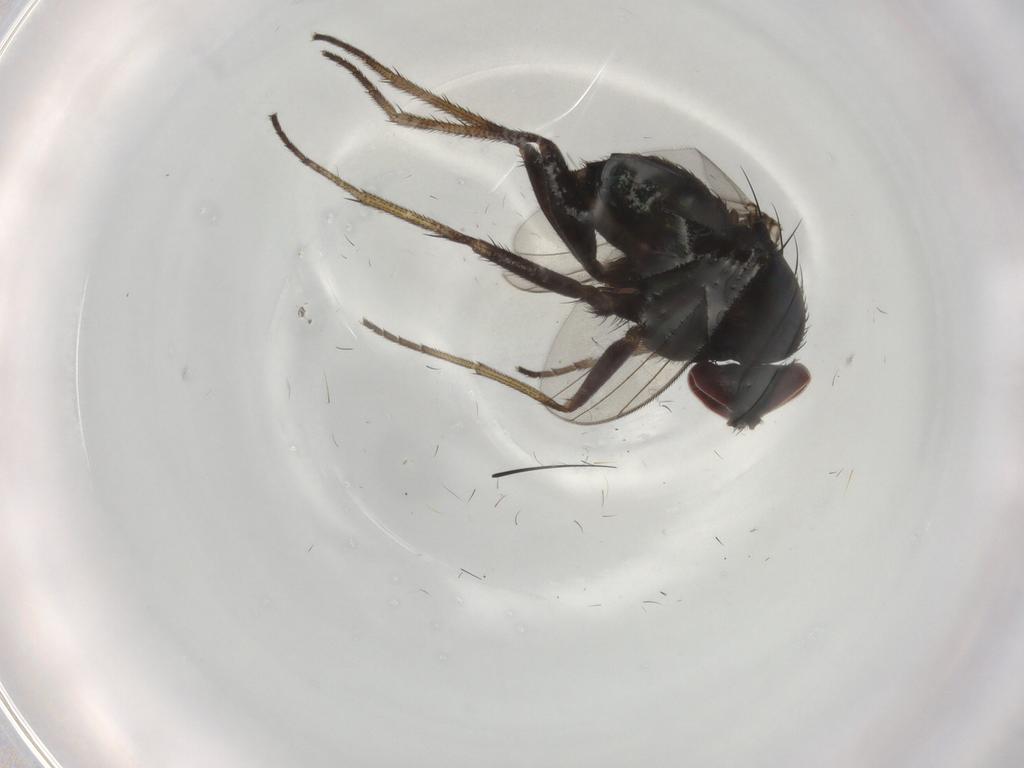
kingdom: Animalia
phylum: Arthropoda
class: Insecta
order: Diptera
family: Dolichopodidae
